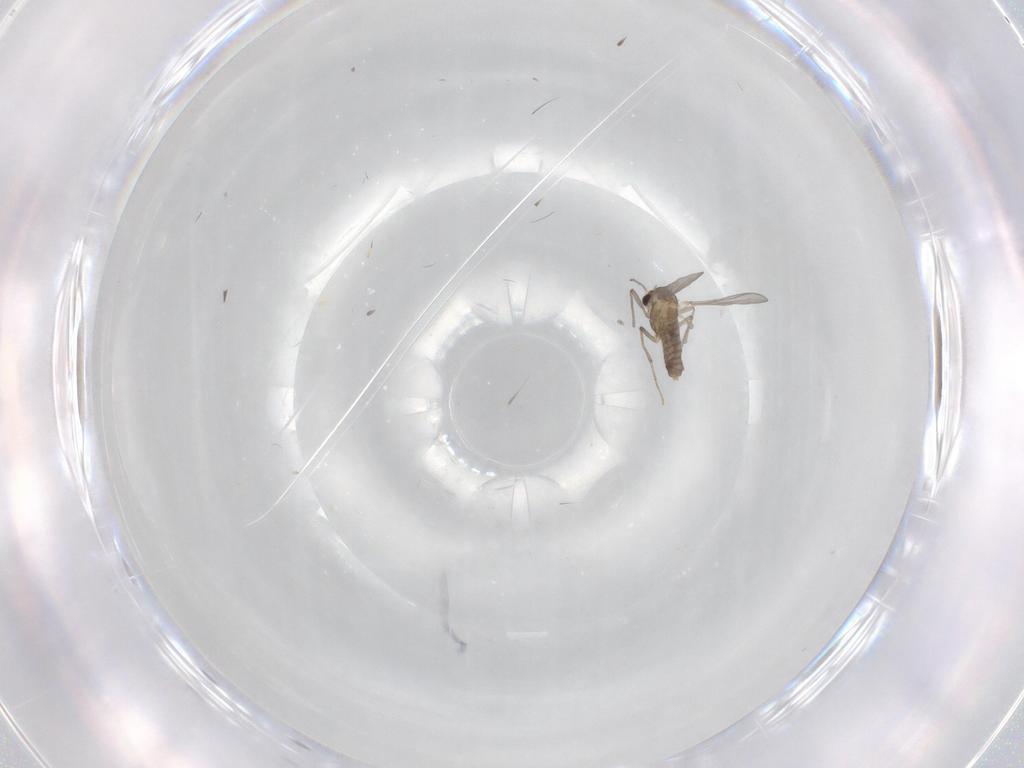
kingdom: Animalia
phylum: Arthropoda
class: Insecta
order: Diptera
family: Chironomidae
